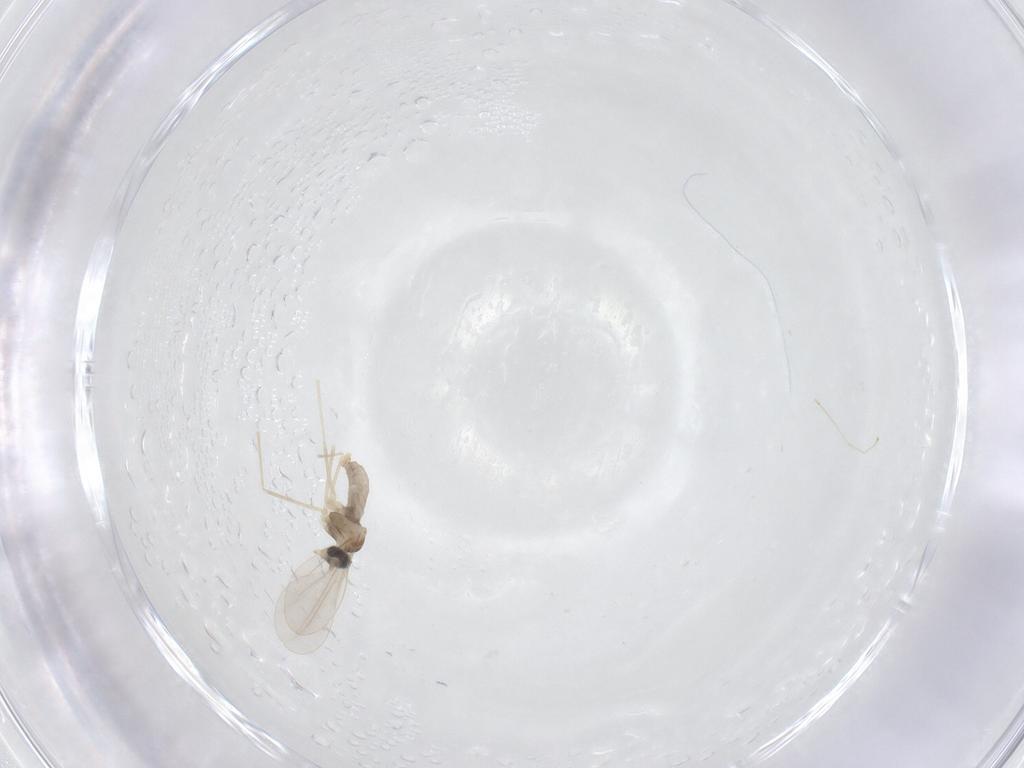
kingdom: Animalia
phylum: Arthropoda
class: Insecta
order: Diptera
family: Cecidomyiidae
